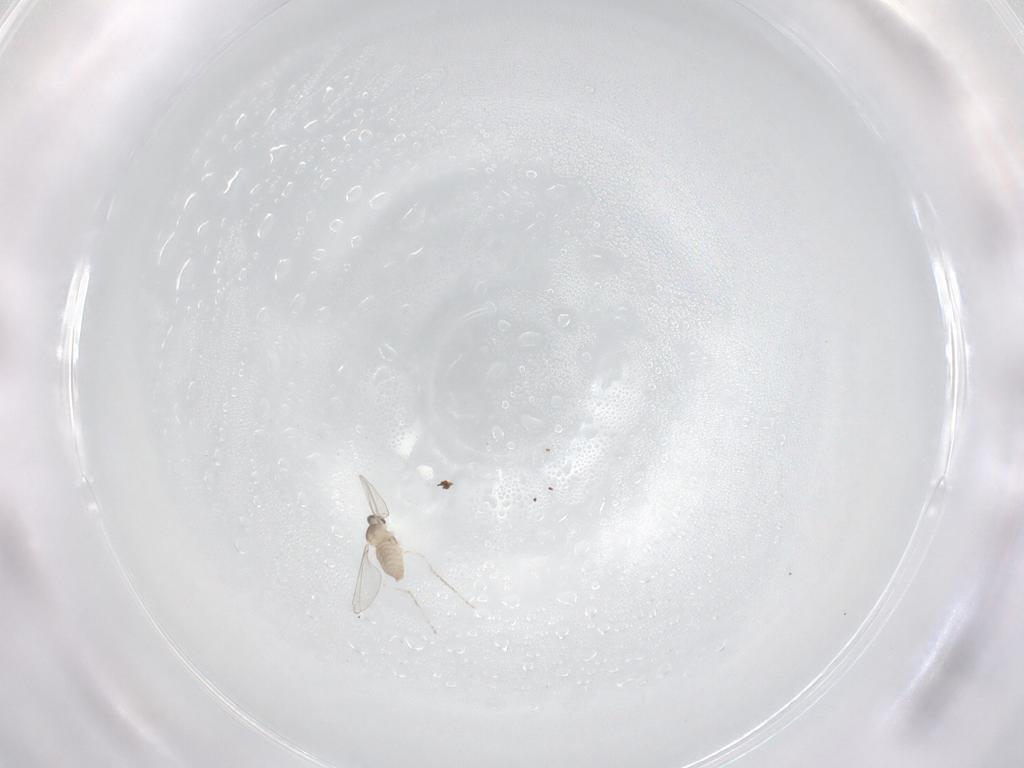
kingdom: Animalia
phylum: Arthropoda
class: Insecta
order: Diptera
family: Cecidomyiidae
